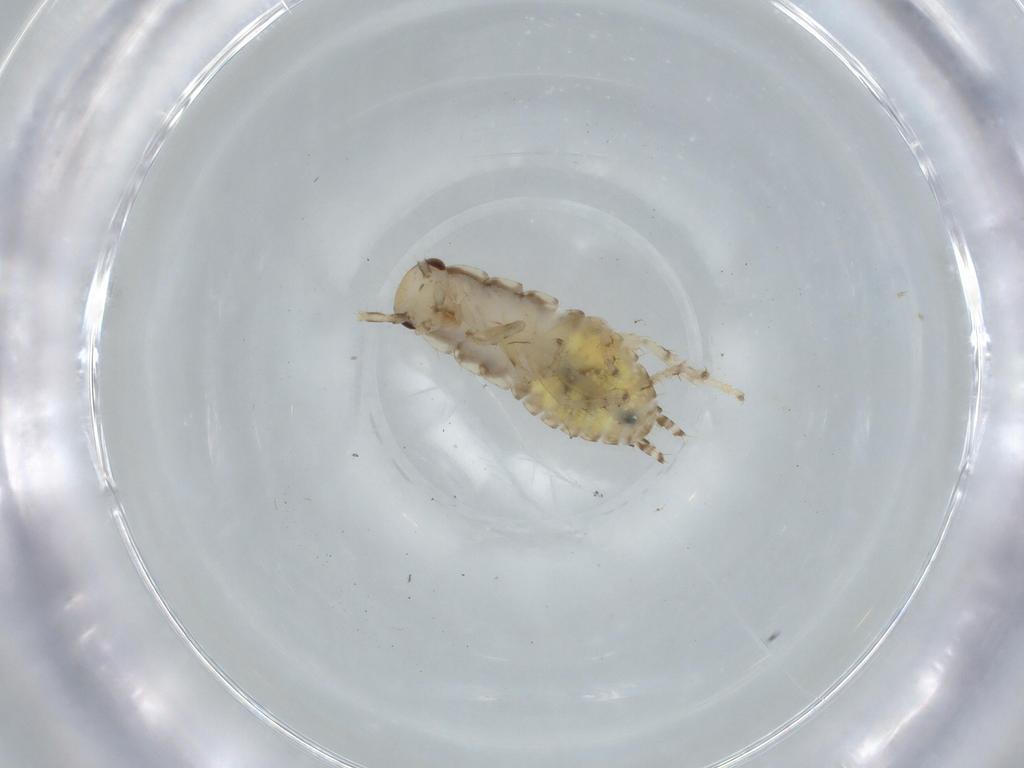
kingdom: Animalia
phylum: Arthropoda
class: Insecta
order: Blattodea
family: Ectobiidae
